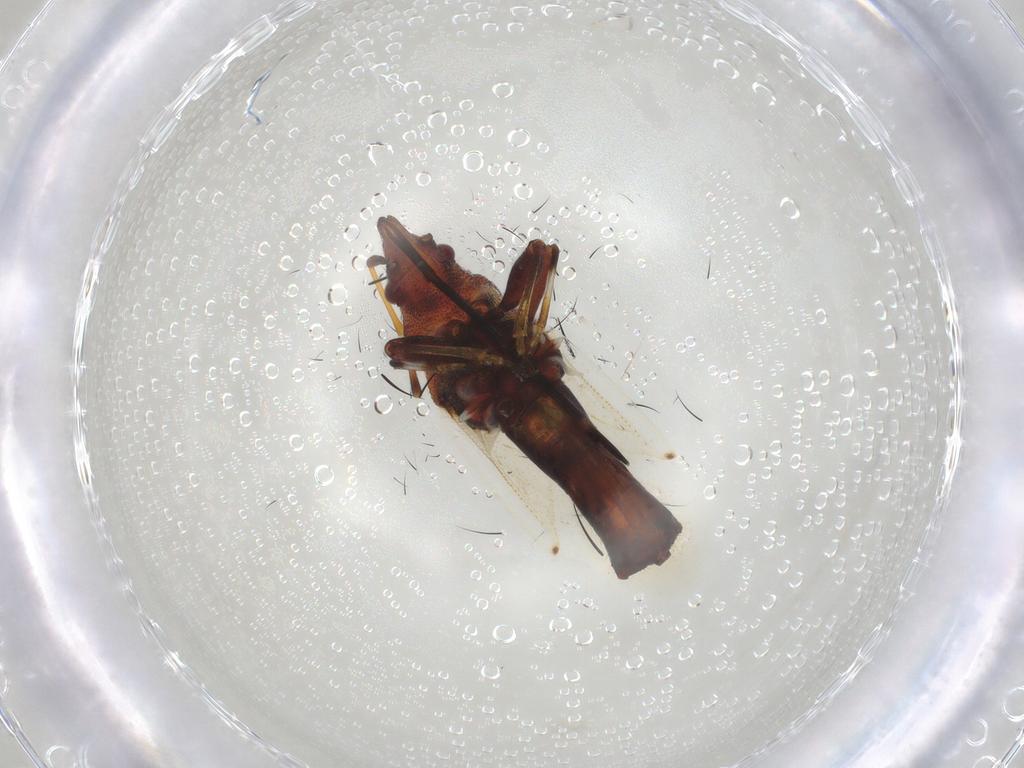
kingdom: Animalia
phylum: Arthropoda
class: Insecta
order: Hemiptera
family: Oxycarenidae
